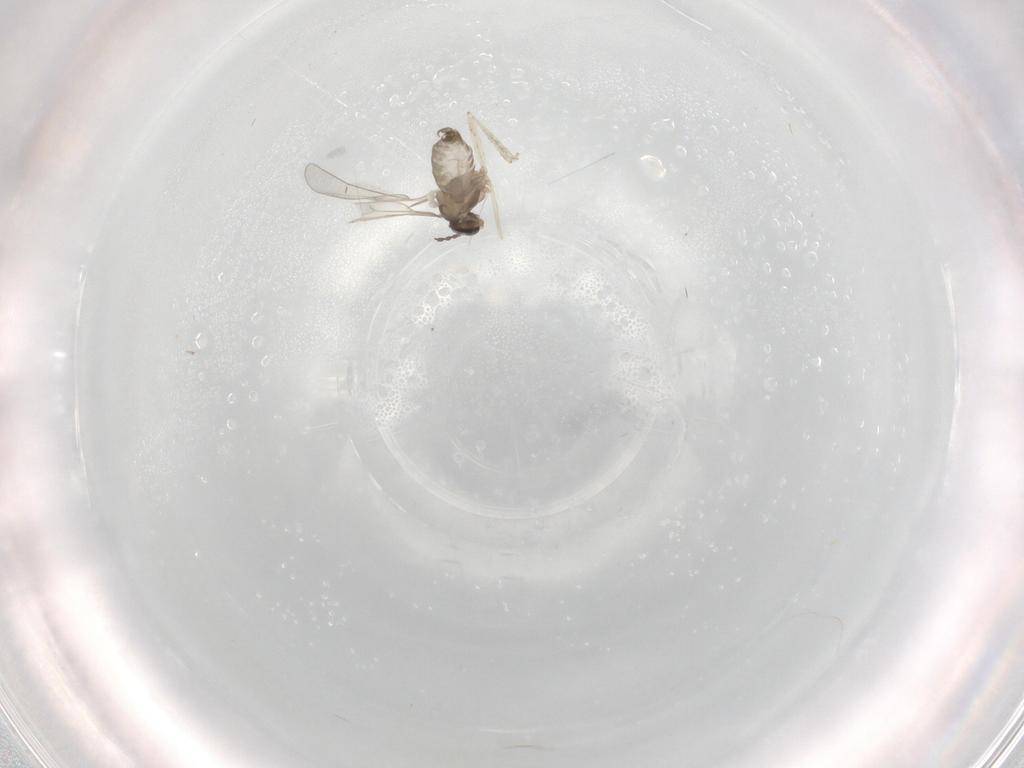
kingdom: Animalia
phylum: Arthropoda
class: Insecta
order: Diptera
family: Cecidomyiidae
